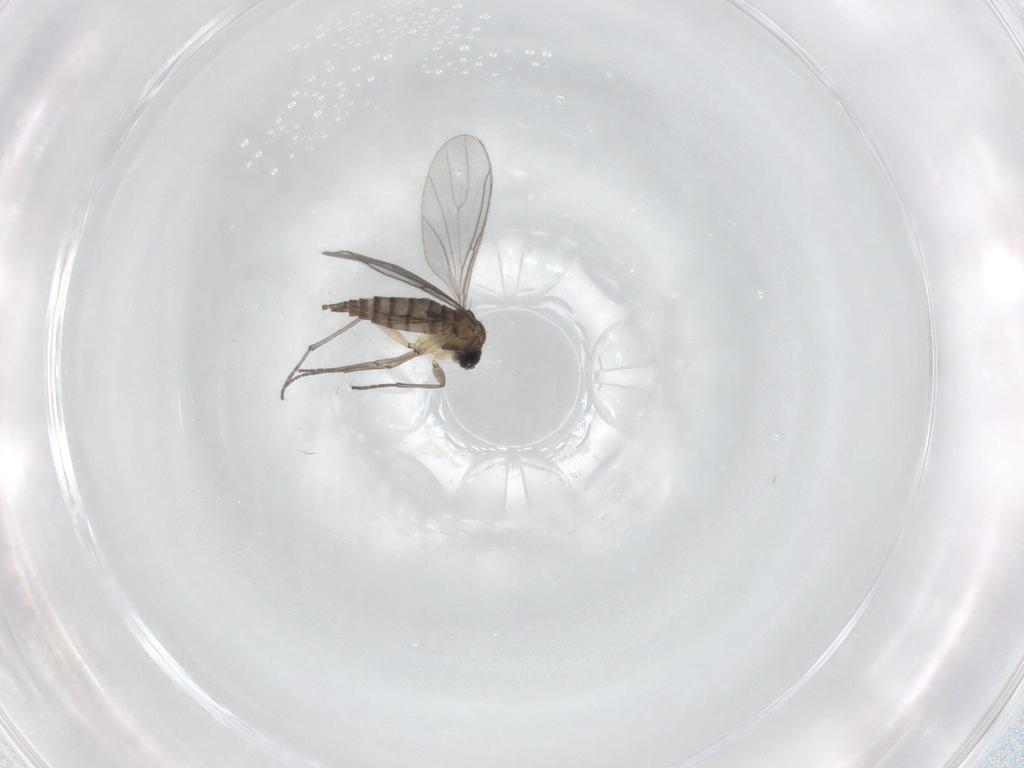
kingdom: Animalia
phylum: Arthropoda
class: Insecta
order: Diptera
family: Sciaridae
